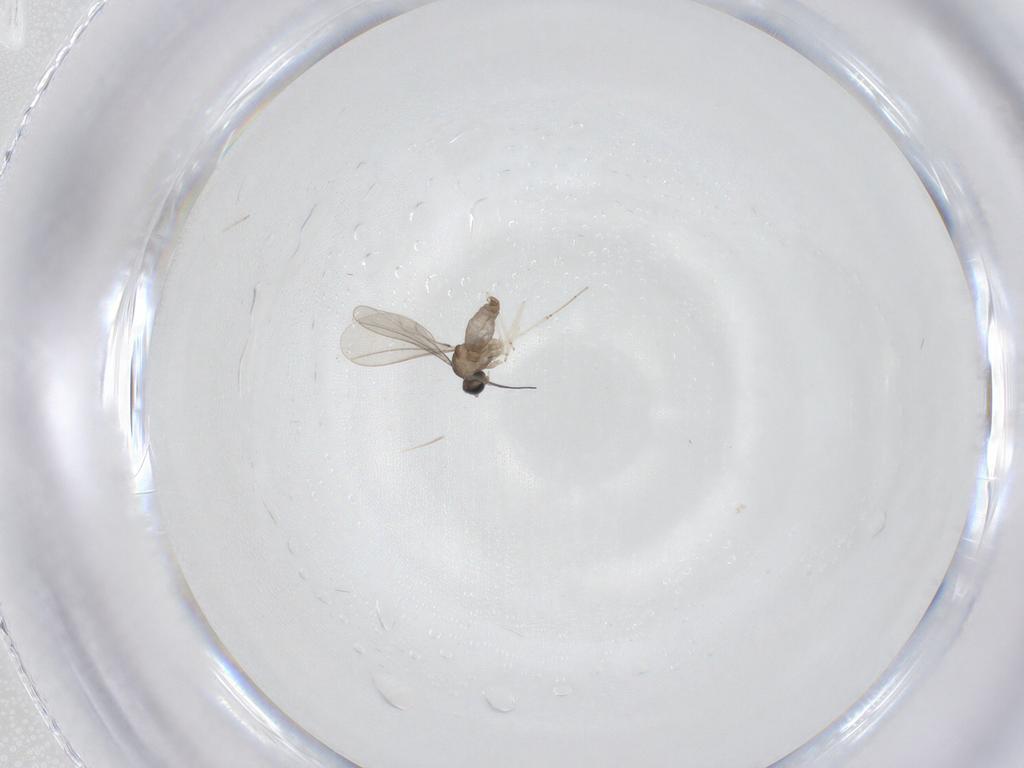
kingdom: Animalia
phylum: Arthropoda
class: Insecta
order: Diptera
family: Cecidomyiidae
